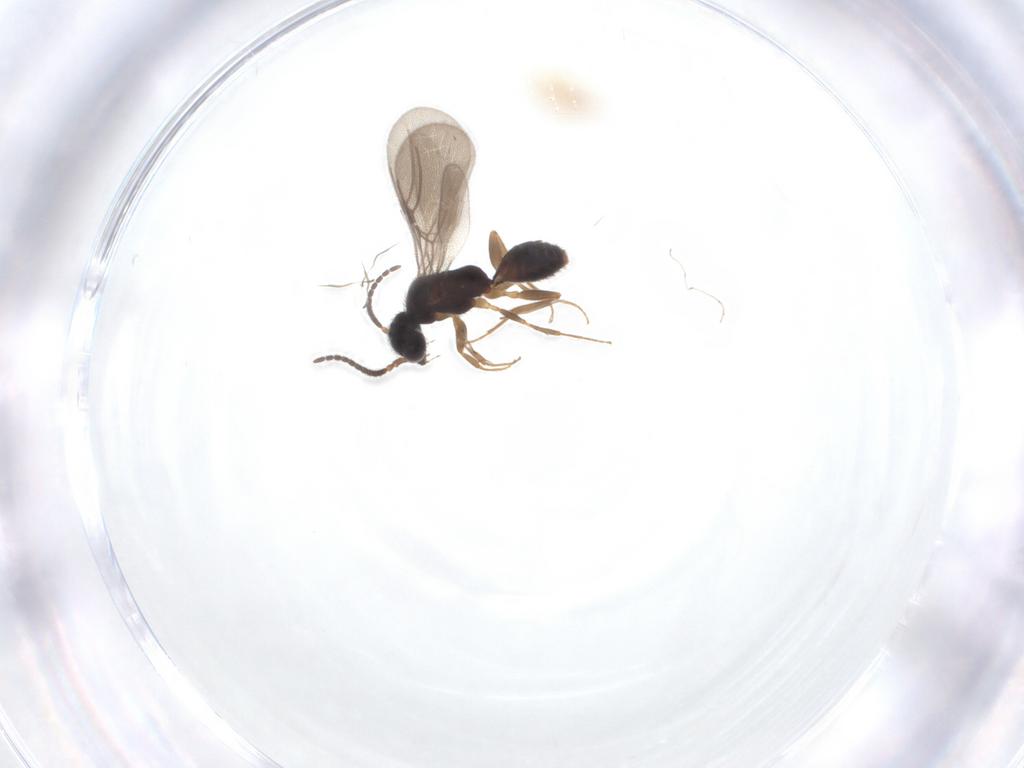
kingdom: Animalia
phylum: Arthropoda
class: Insecta
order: Hymenoptera
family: Bethylidae
